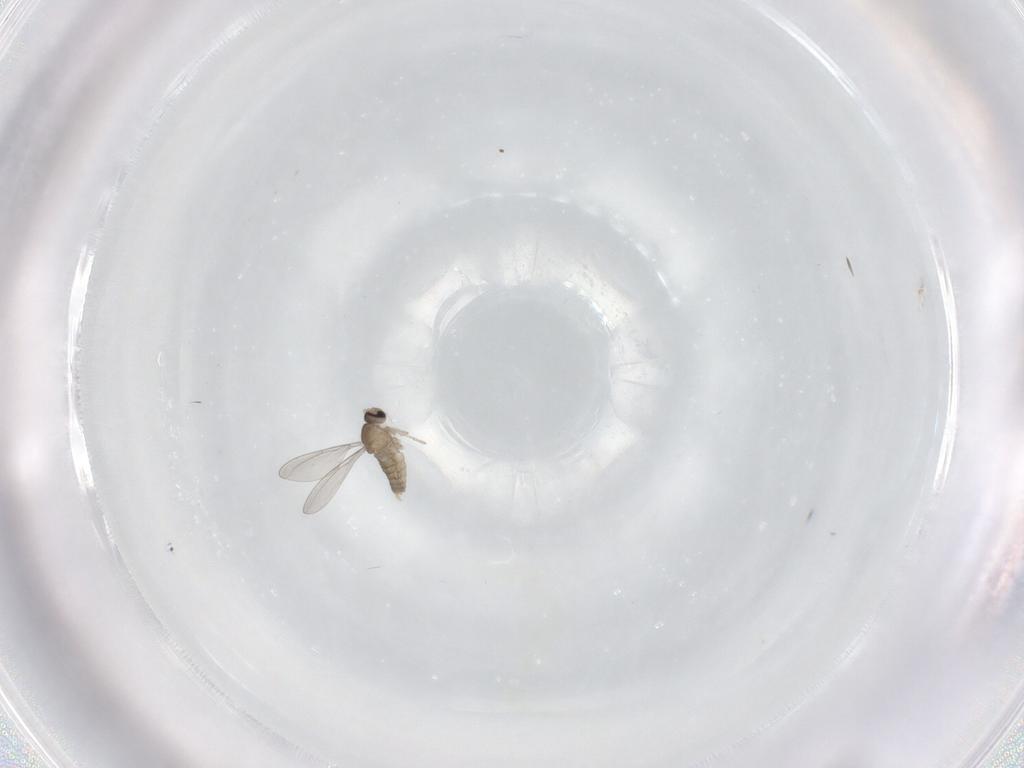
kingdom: Animalia
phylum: Arthropoda
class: Insecta
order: Diptera
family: Cecidomyiidae
